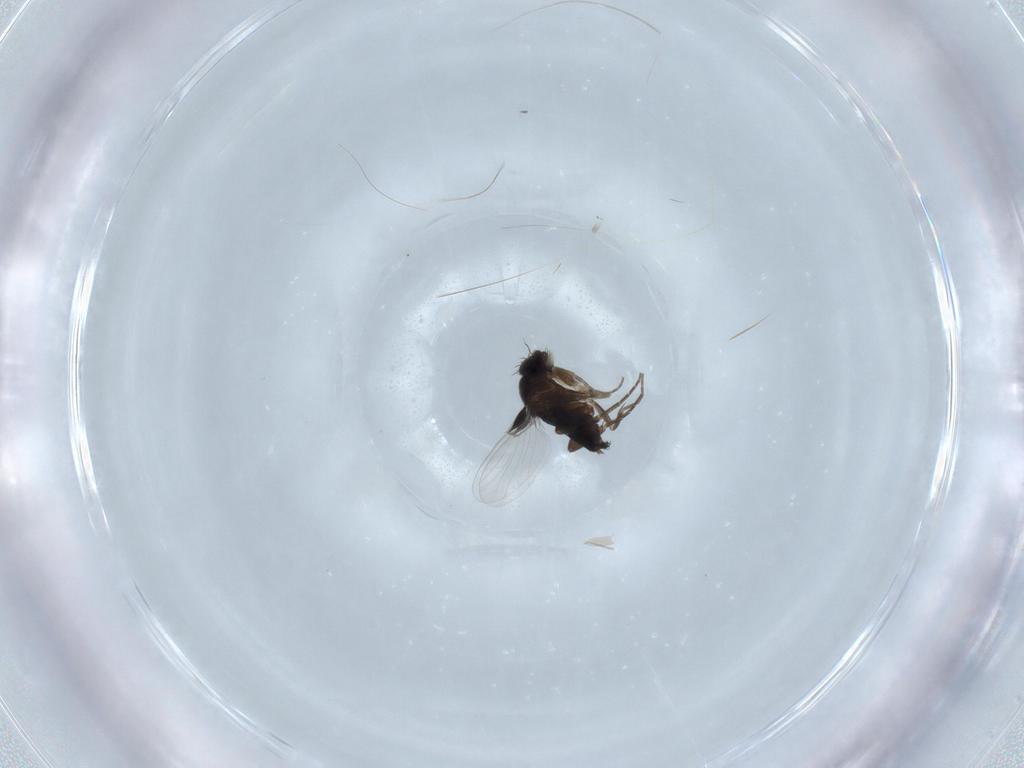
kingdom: Animalia
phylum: Arthropoda
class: Insecta
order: Diptera
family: Phoridae
